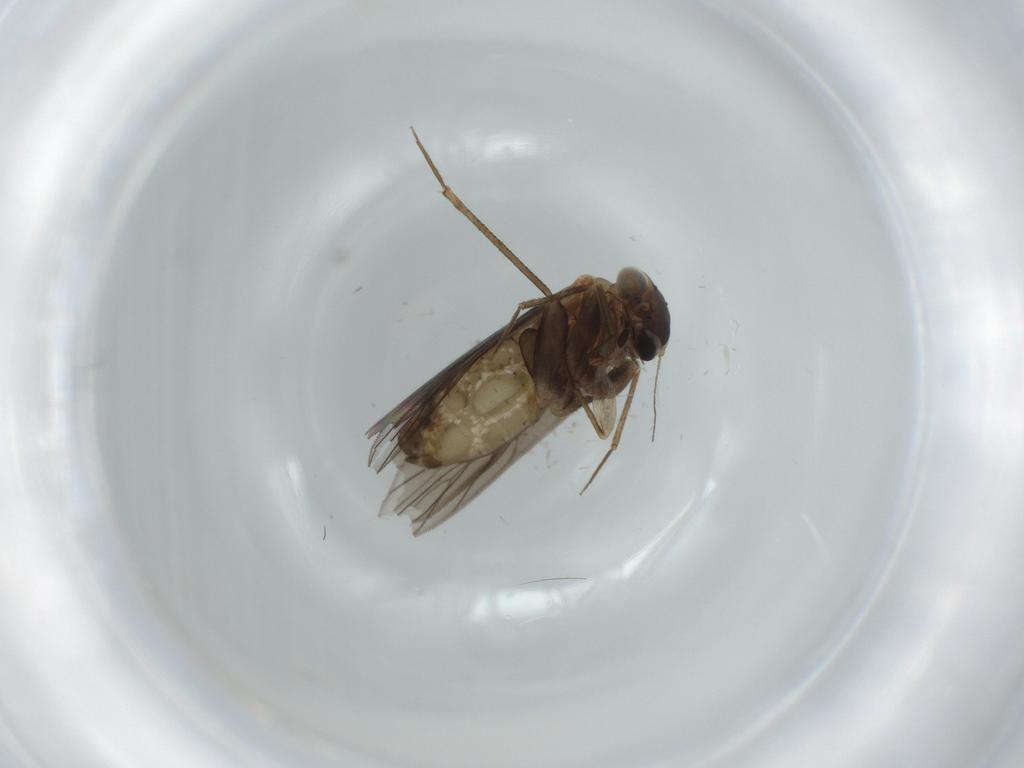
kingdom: Animalia
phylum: Arthropoda
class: Insecta
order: Psocodea
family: Lepidopsocidae
